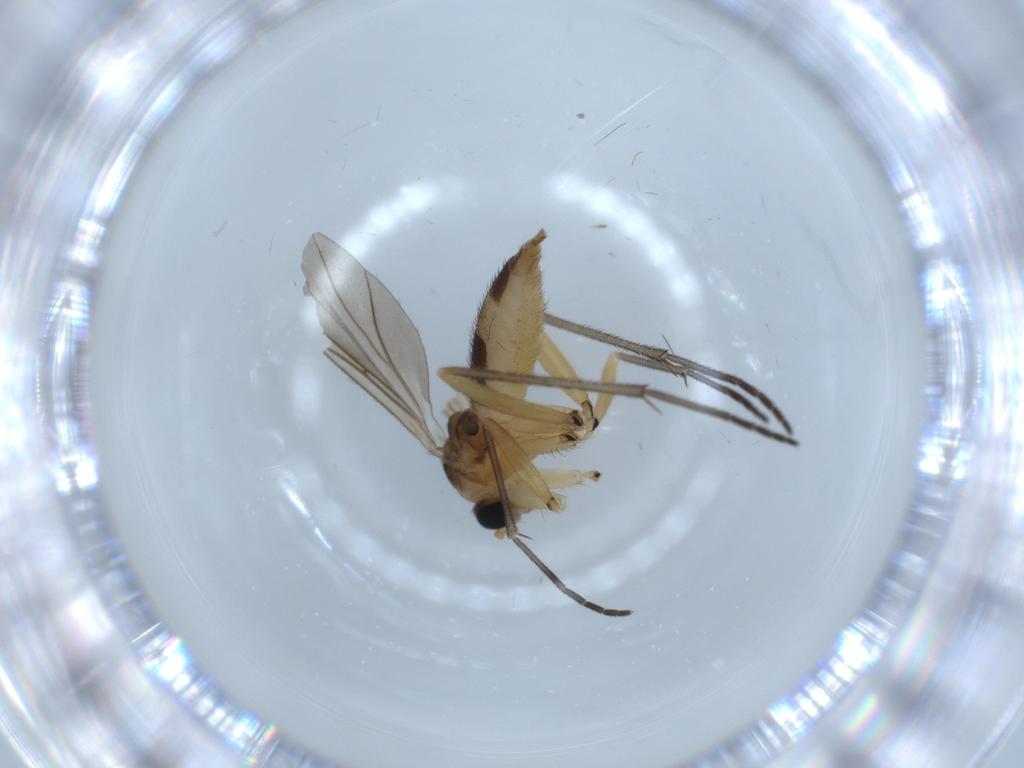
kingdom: Animalia
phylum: Arthropoda
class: Insecta
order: Diptera
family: Sciaridae
